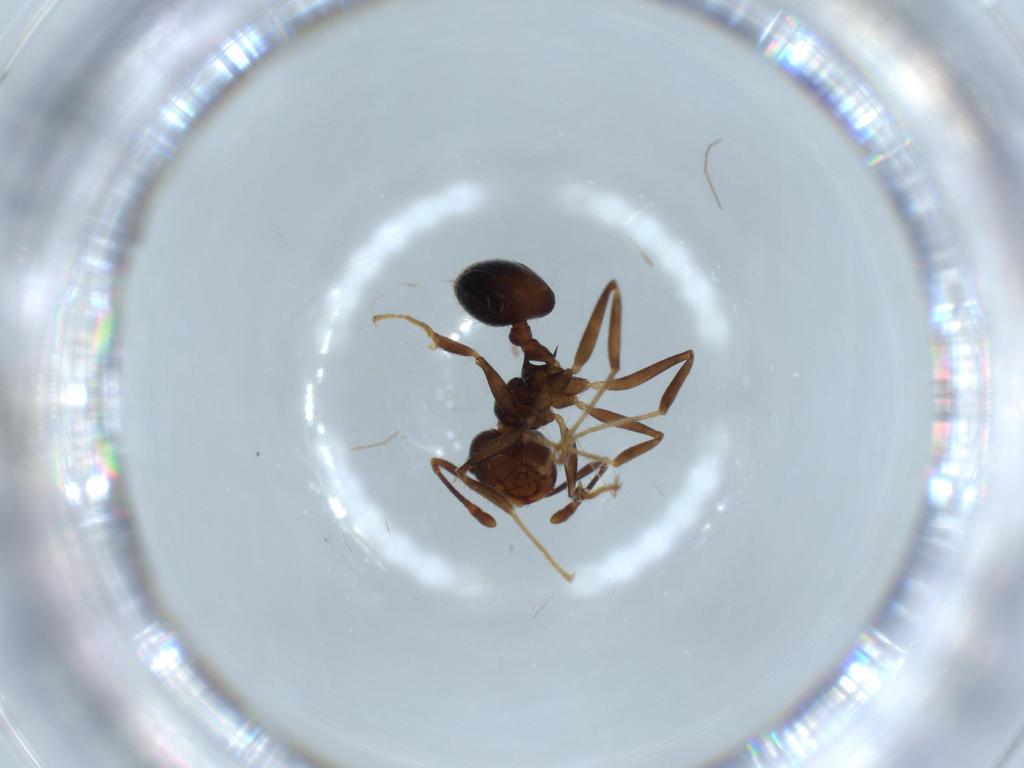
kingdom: Animalia
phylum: Arthropoda
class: Insecta
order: Hymenoptera
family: Formicidae
